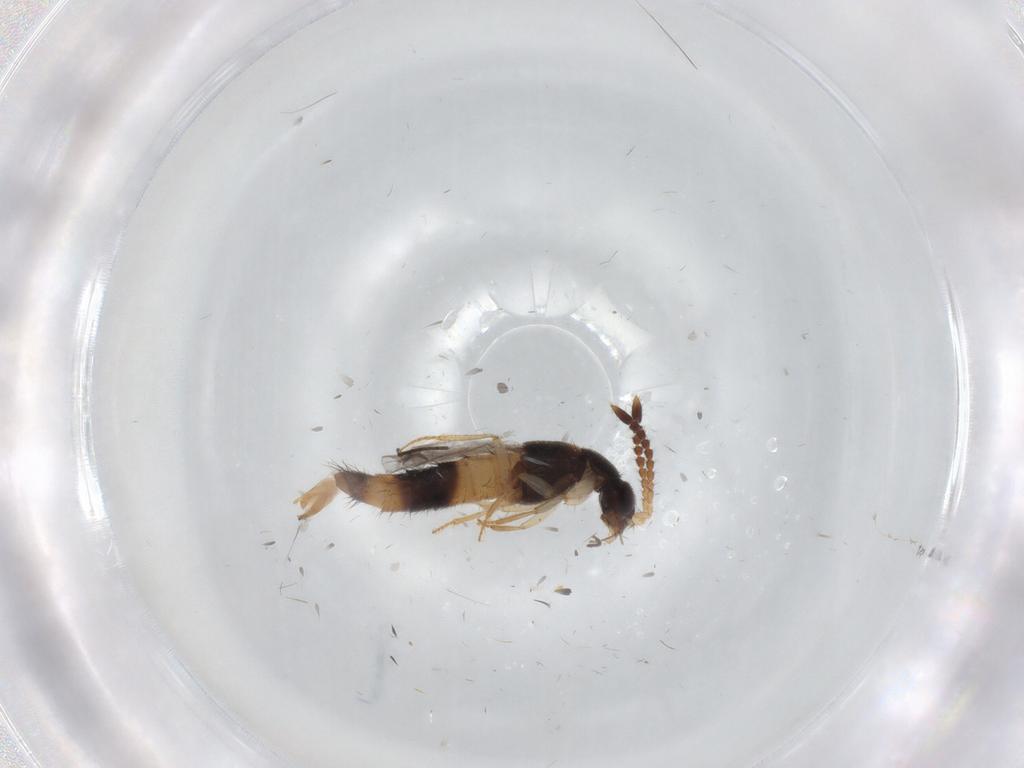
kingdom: Animalia
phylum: Arthropoda
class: Insecta
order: Coleoptera
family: Staphylinidae
